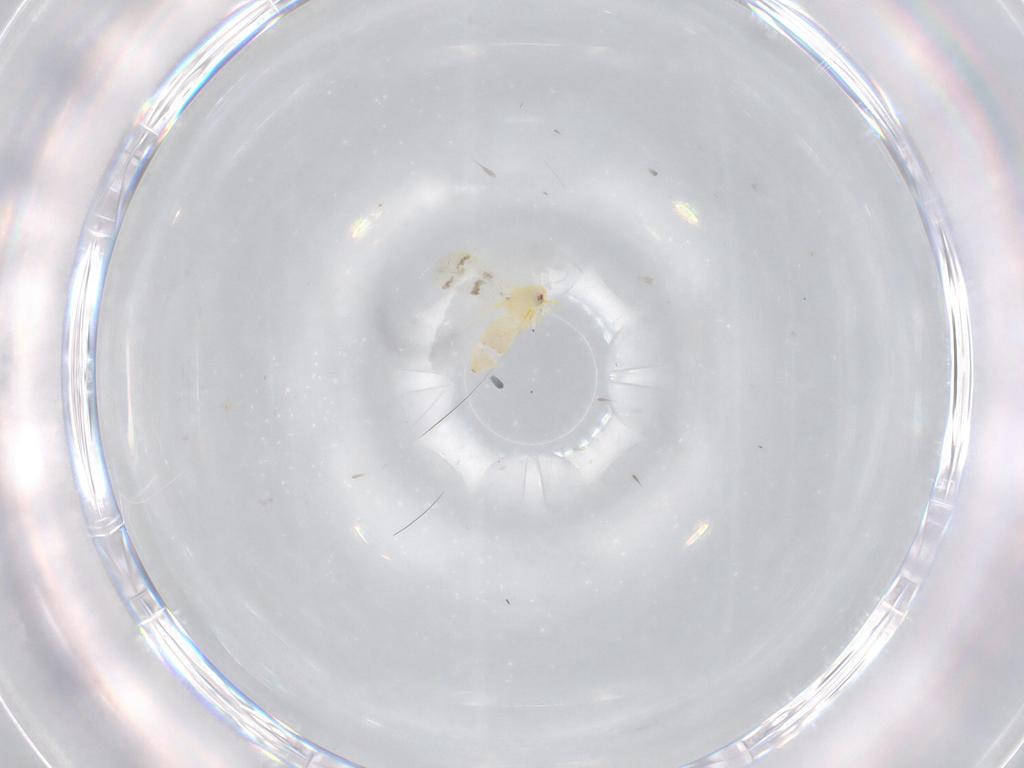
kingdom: Animalia
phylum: Arthropoda
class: Insecta
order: Hemiptera
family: Aleyrodidae
